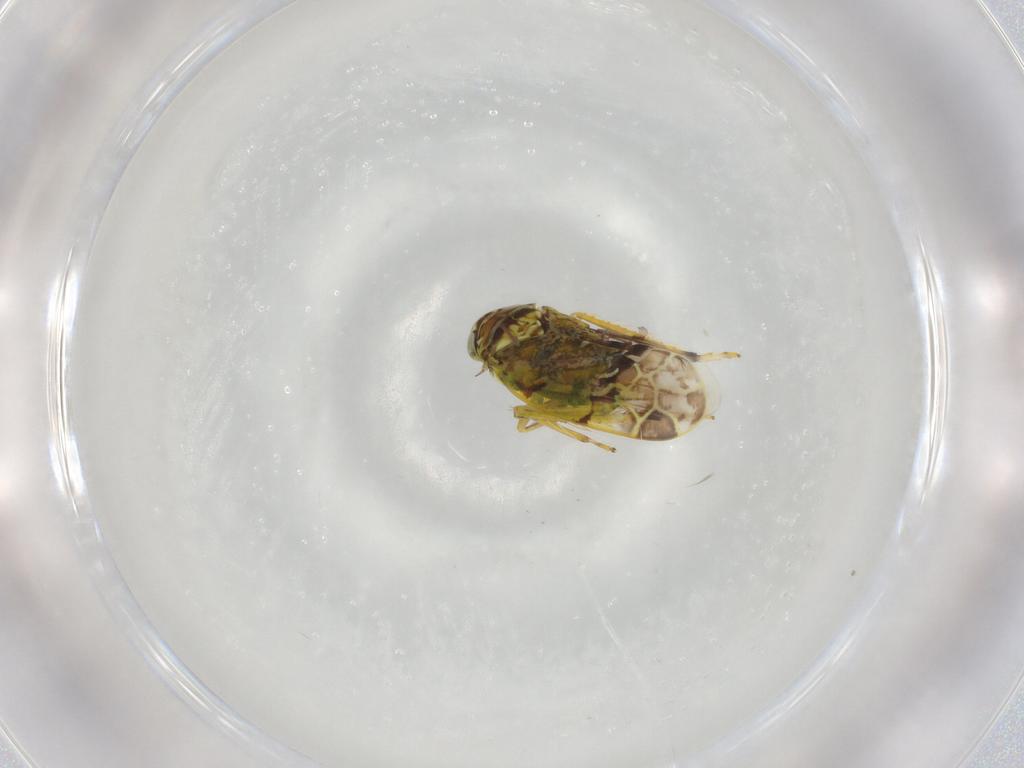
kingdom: Animalia
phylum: Arthropoda
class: Insecta
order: Hemiptera
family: Cicadellidae
